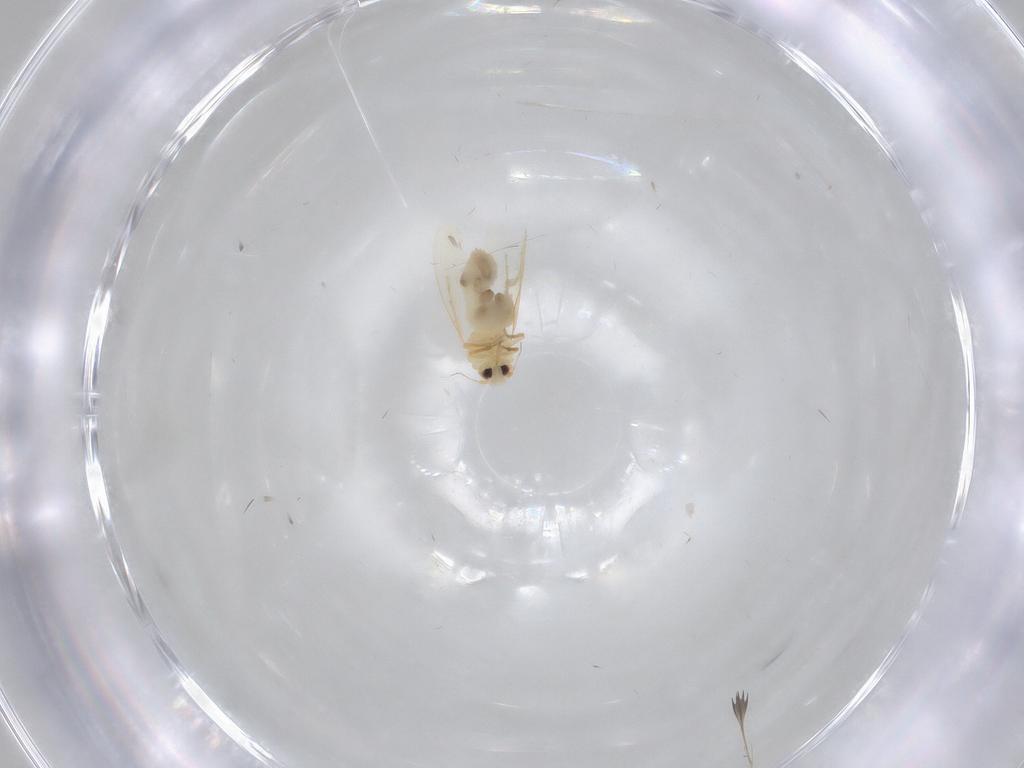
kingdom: Animalia
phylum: Arthropoda
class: Insecta
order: Hemiptera
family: Aleyrodidae
